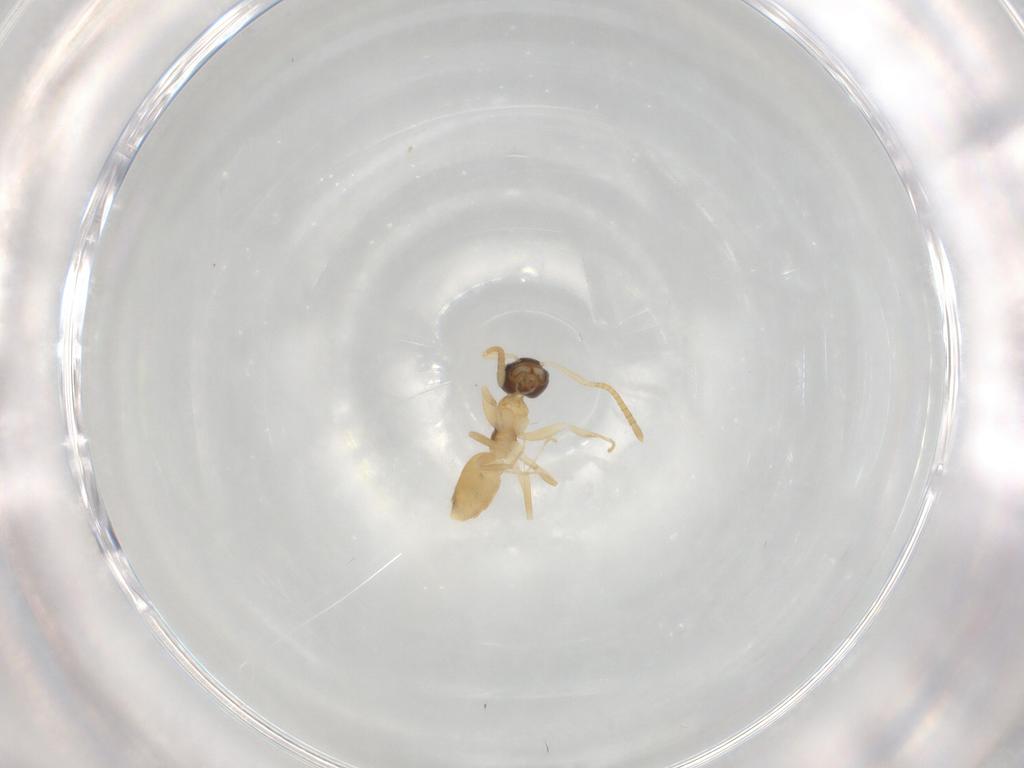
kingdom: Animalia
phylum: Arthropoda
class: Insecta
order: Hymenoptera
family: Formicidae
